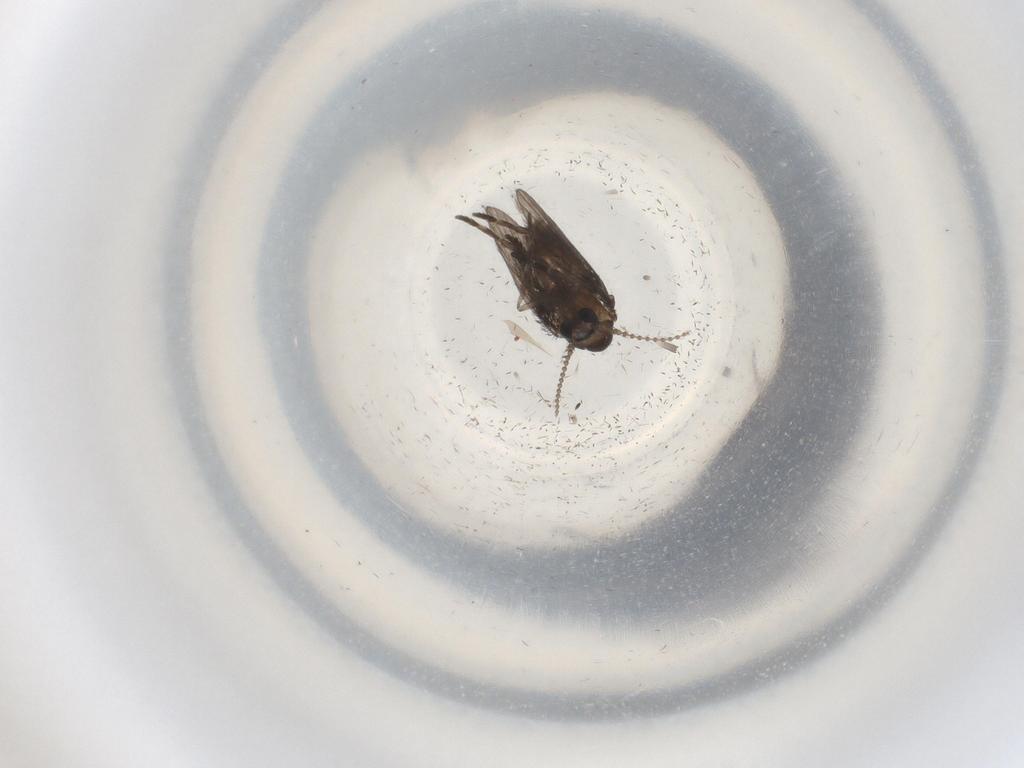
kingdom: Animalia
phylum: Arthropoda
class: Insecta
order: Diptera
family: Psychodidae
